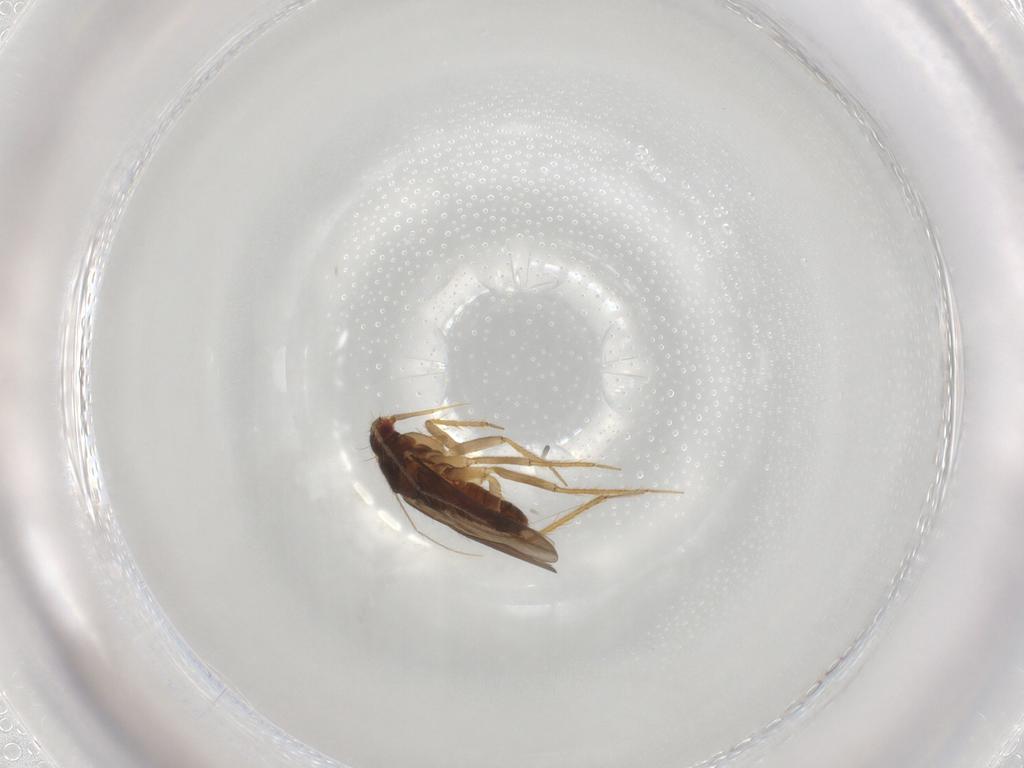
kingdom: Animalia
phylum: Arthropoda
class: Insecta
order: Hemiptera
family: Ceratocombidae
